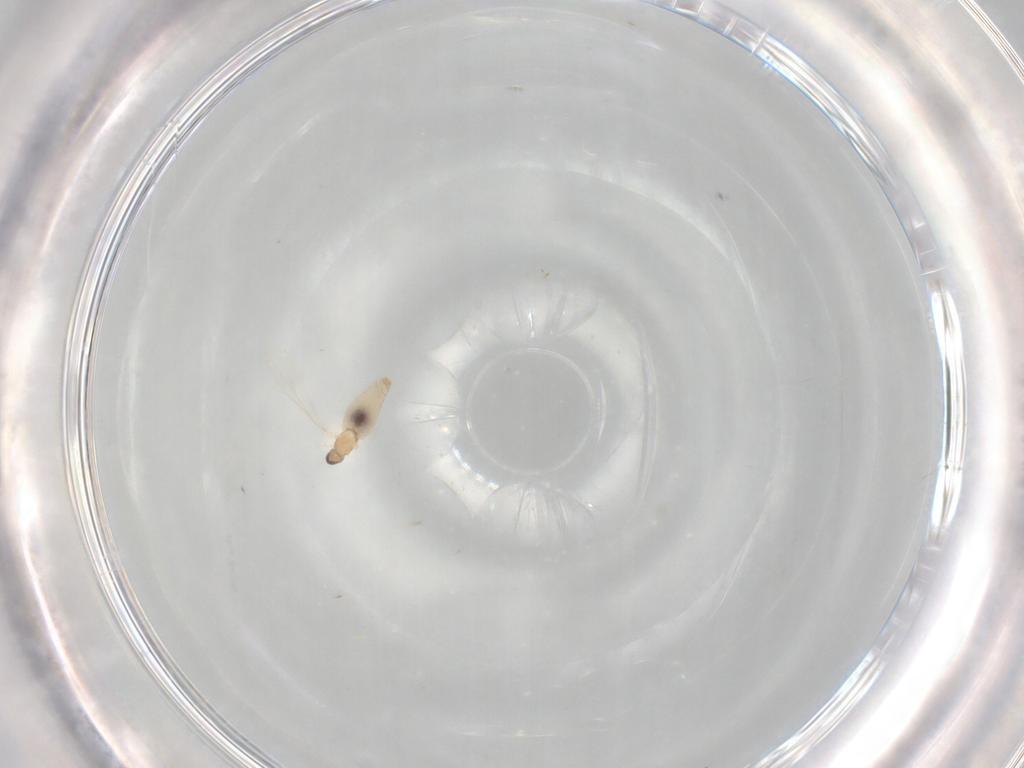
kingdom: Animalia
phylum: Arthropoda
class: Insecta
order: Diptera
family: Cecidomyiidae
